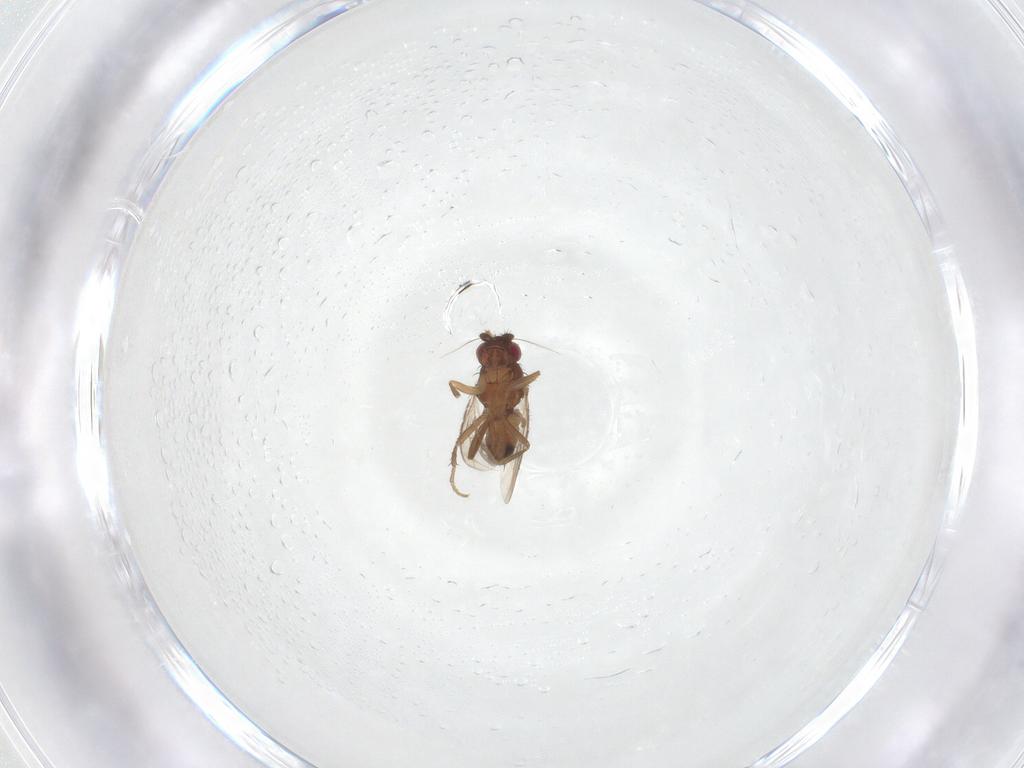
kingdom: Animalia
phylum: Arthropoda
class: Insecta
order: Diptera
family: Sphaeroceridae
